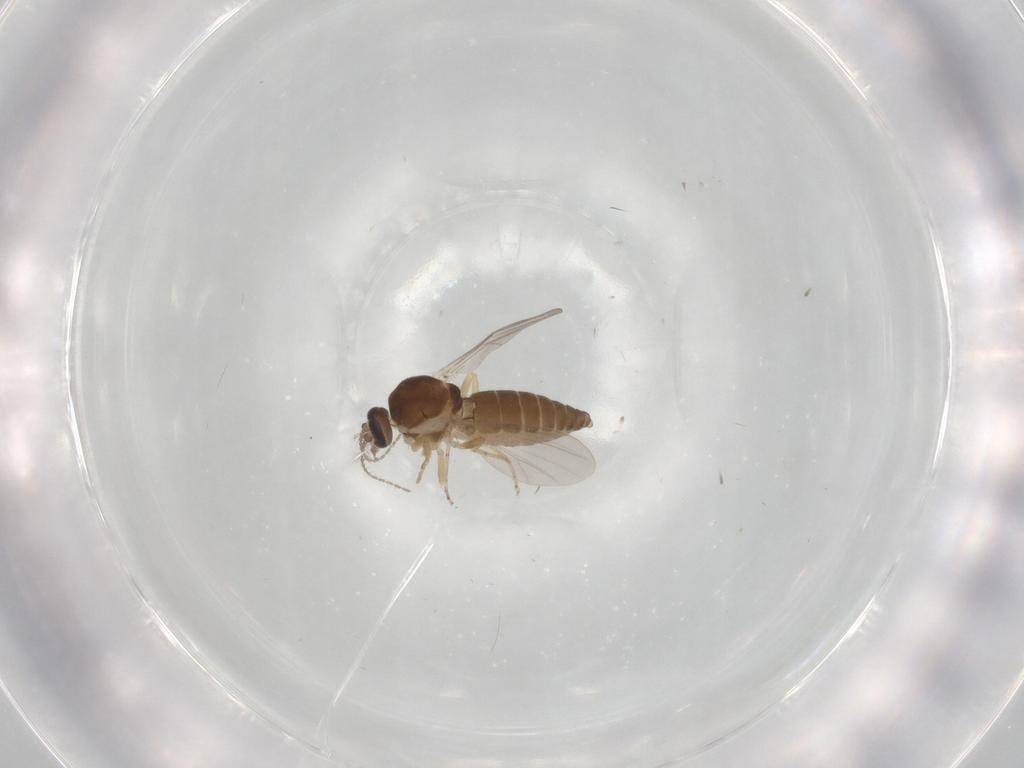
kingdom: Animalia
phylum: Arthropoda
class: Insecta
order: Diptera
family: Ceratopogonidae
